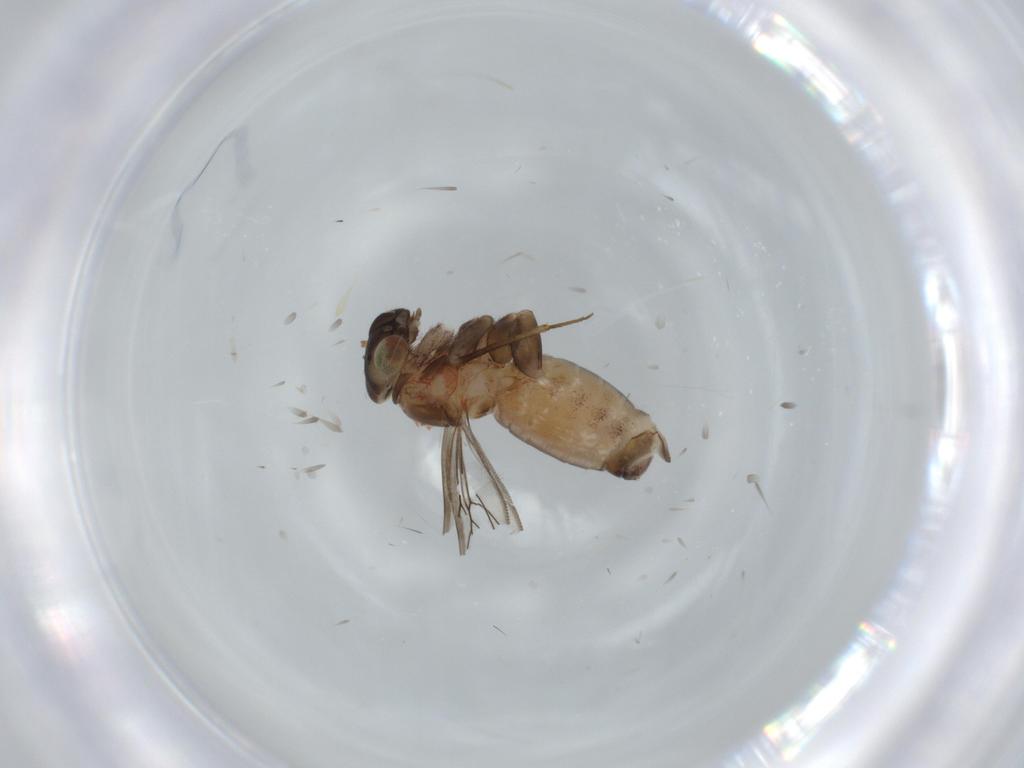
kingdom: Animalia
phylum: Arthropoda
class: Insecta
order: Psocodea
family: Lepidopsocidae
